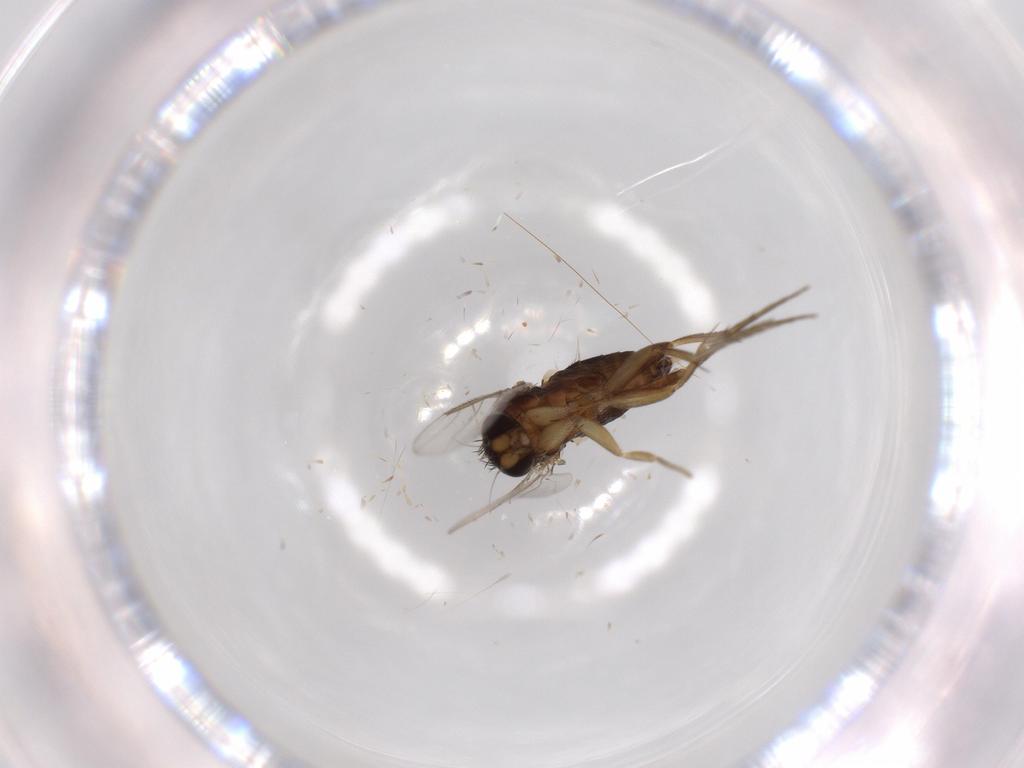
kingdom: Animalia
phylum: Arthropoda
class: Insecta
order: Diptera
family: Phoridae
